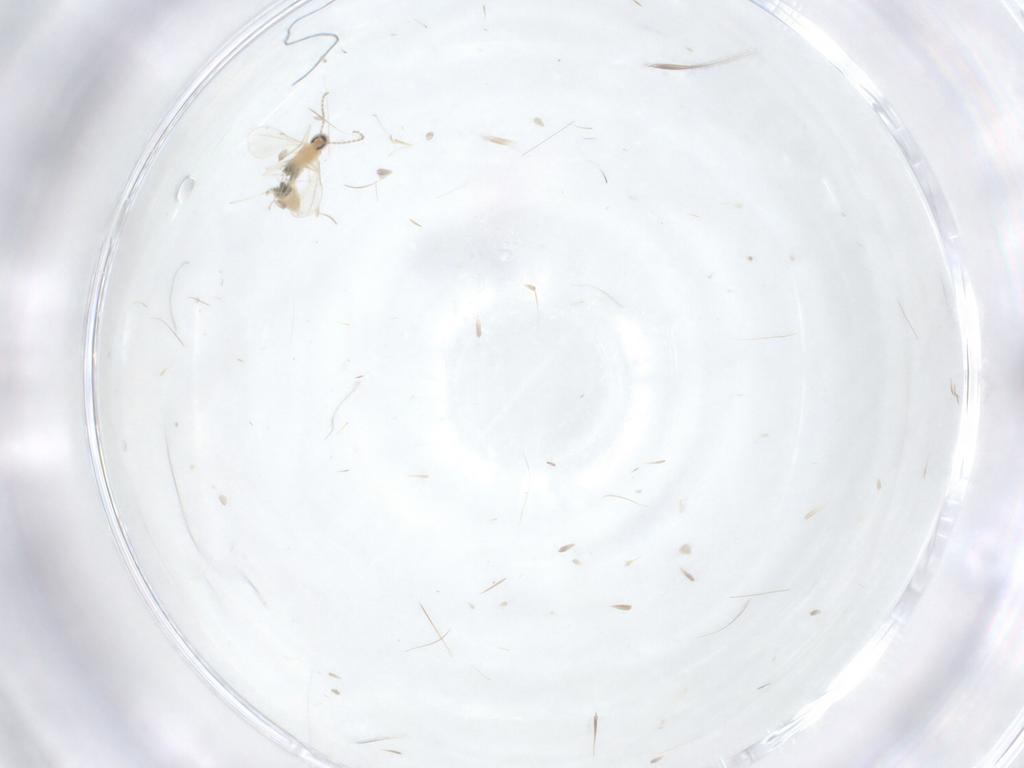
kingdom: Animalia
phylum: Arthropoda
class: Insecta
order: Diptera
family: Cecidomyiidae
